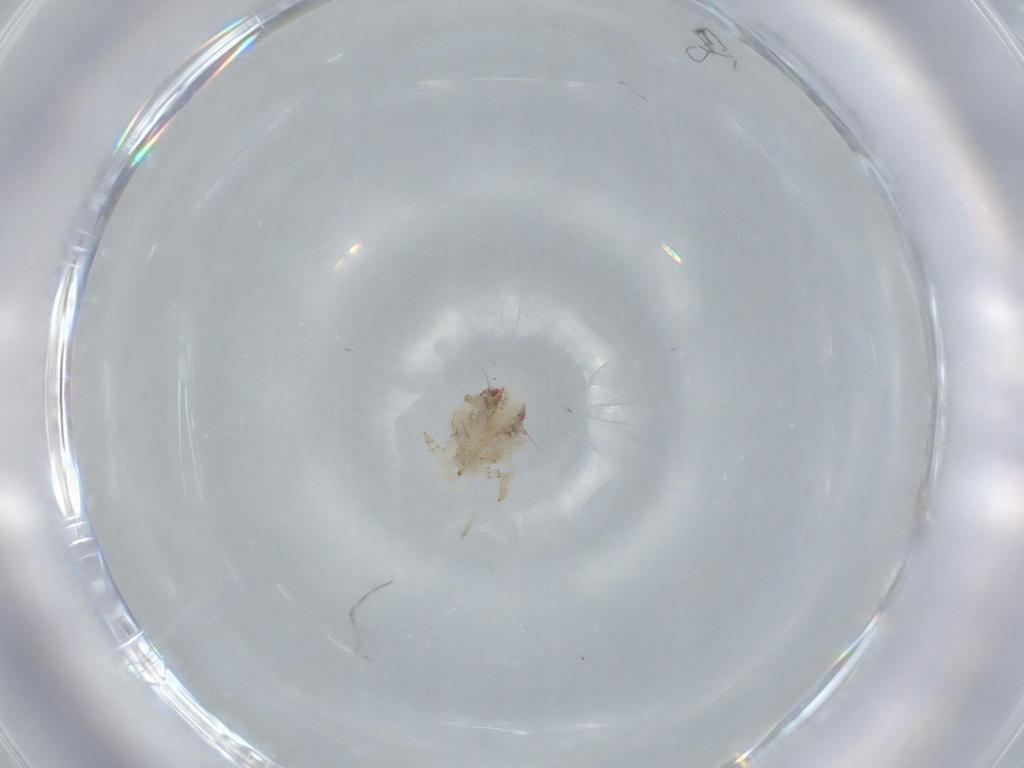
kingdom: Animalia
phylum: Arthropoda
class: Insecta
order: Hemiptera
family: Acanaloniidae
